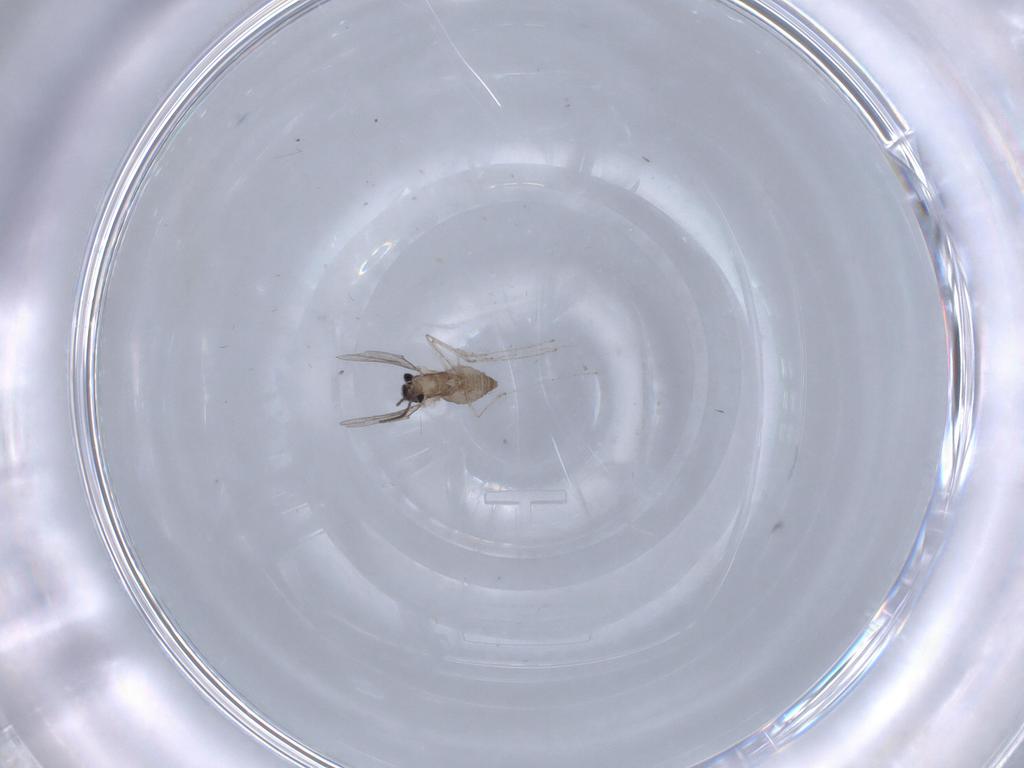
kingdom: Animalia
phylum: Arthropoda
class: Insecta
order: Diptera
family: Cecidomyiidae
